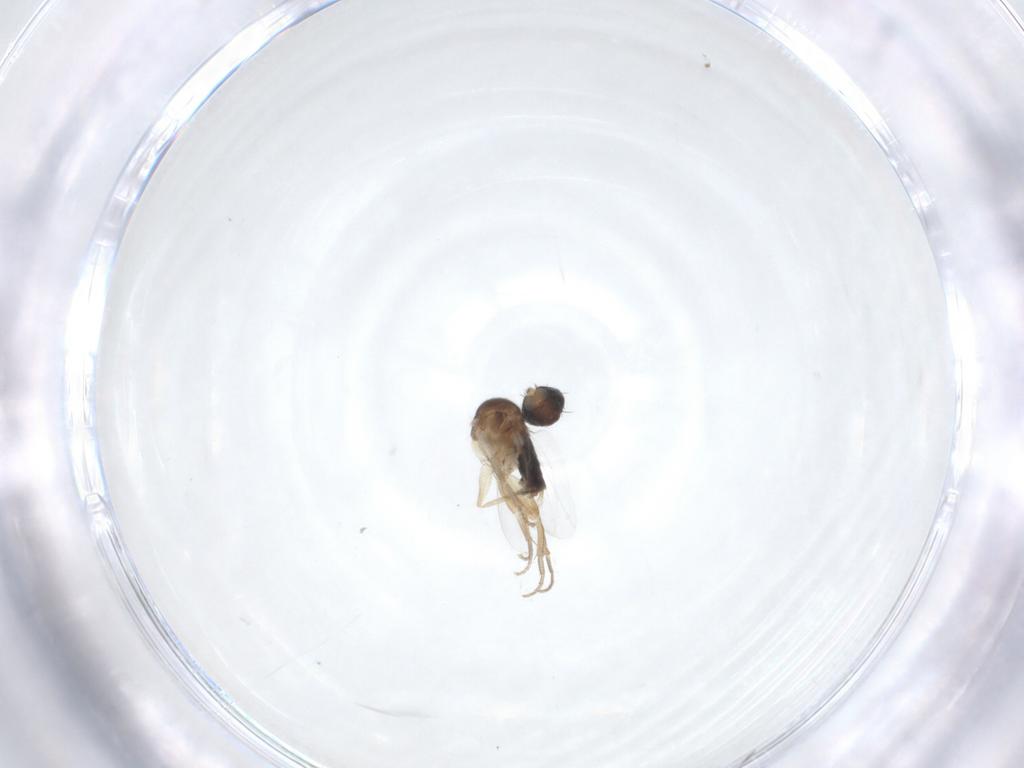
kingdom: Animalia
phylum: Arthropoda
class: Insecta
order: Diptera
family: Phoridae
